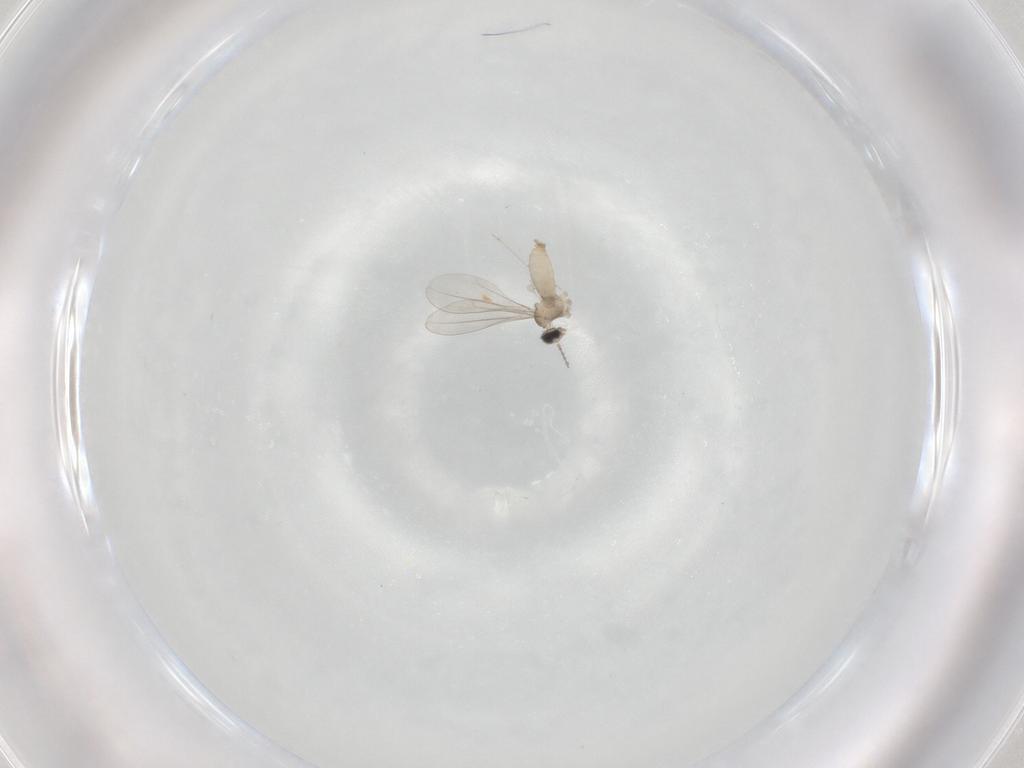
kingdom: Animalia
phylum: Arthropoda
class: Insecta
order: Diptera
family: Cecidomyiidae
